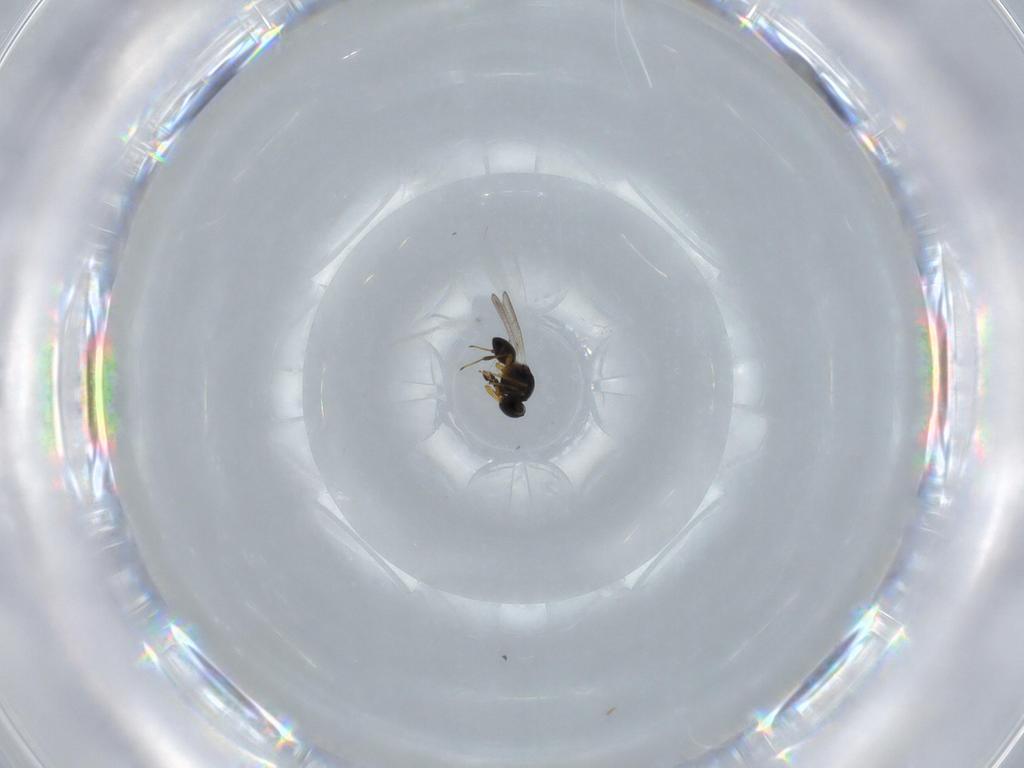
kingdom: Animalia
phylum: Arthropoda
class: Insecta
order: Hymenoptera
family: Platygastridae
